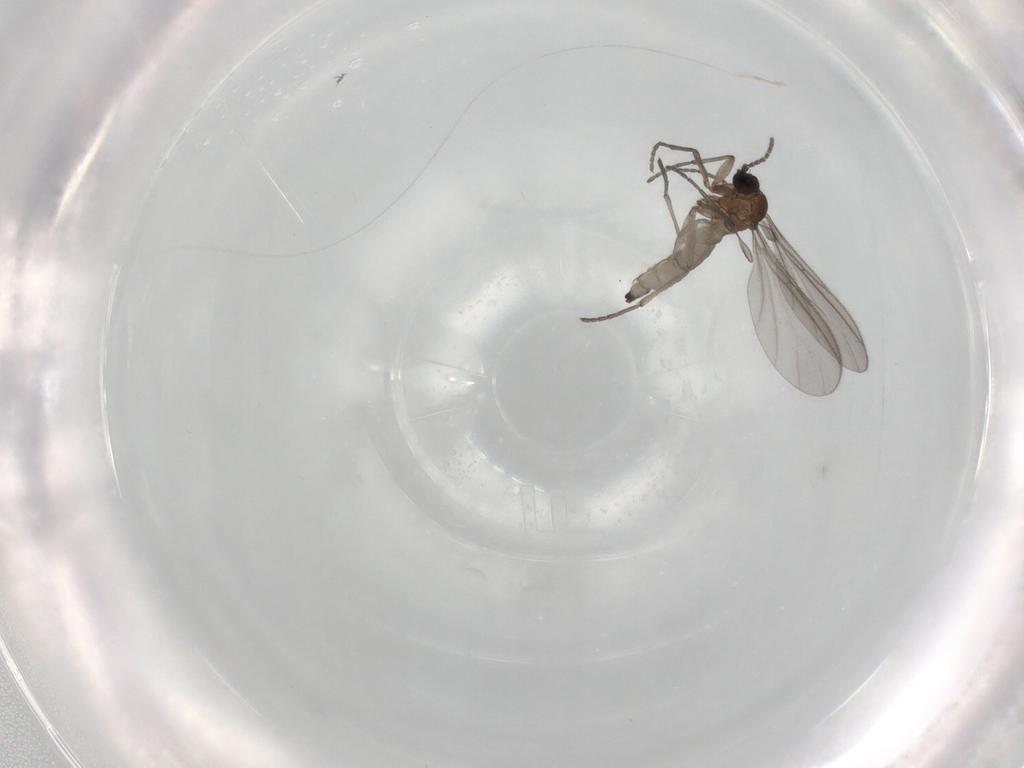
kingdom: Animalia
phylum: Arthropoda
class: Insecta
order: Diptera
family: Sciaridae
